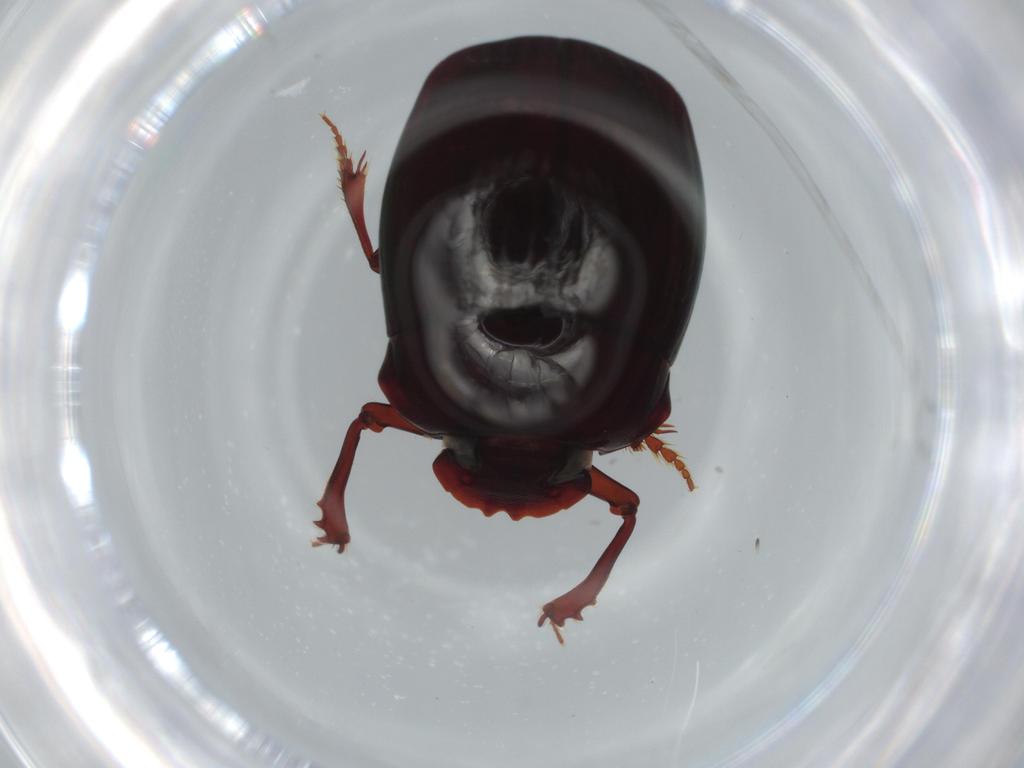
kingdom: Animalia
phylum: Arthropoda
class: Insecta
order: Coleoptera
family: Scarabaeidae
